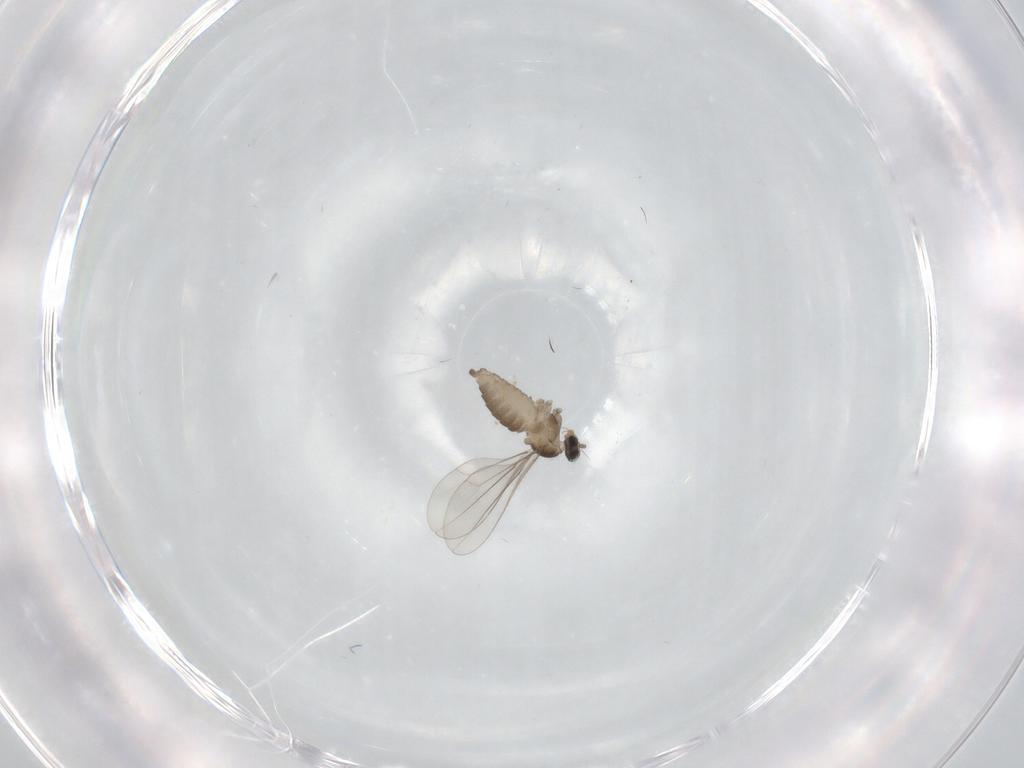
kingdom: Animalia
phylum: Arthropoda
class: Insecta
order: Diptera
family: Cecidomyiidae
